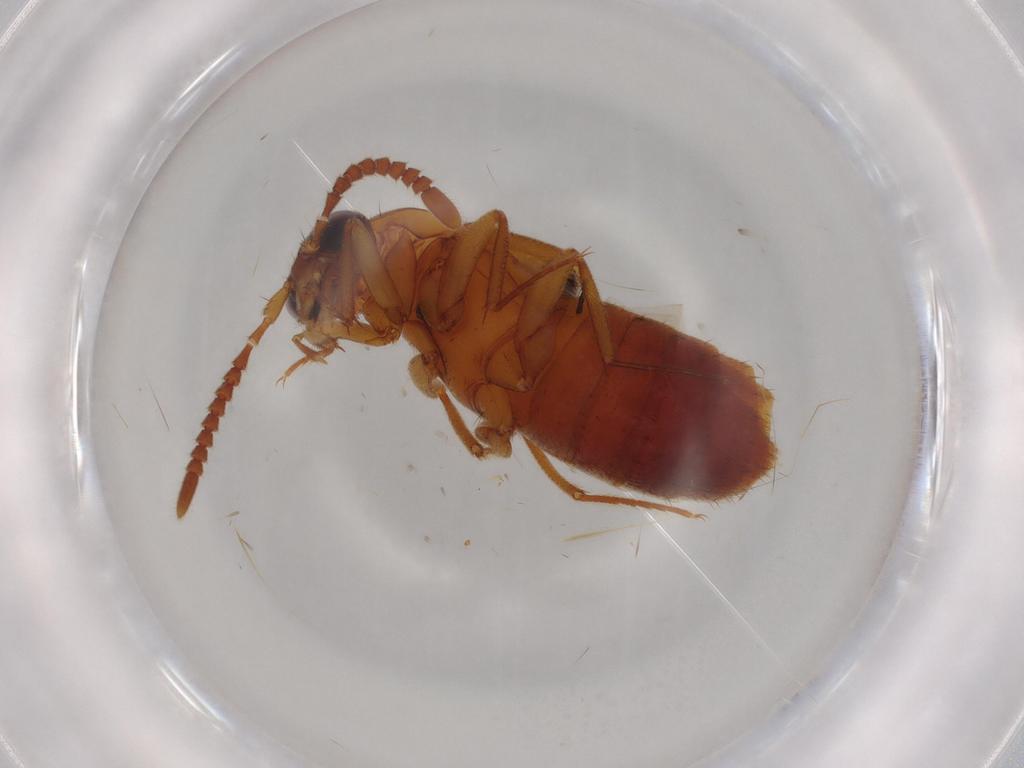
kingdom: Animalia
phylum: Arthropoda
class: Insecta
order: Coleoptera
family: Staphylinidae
